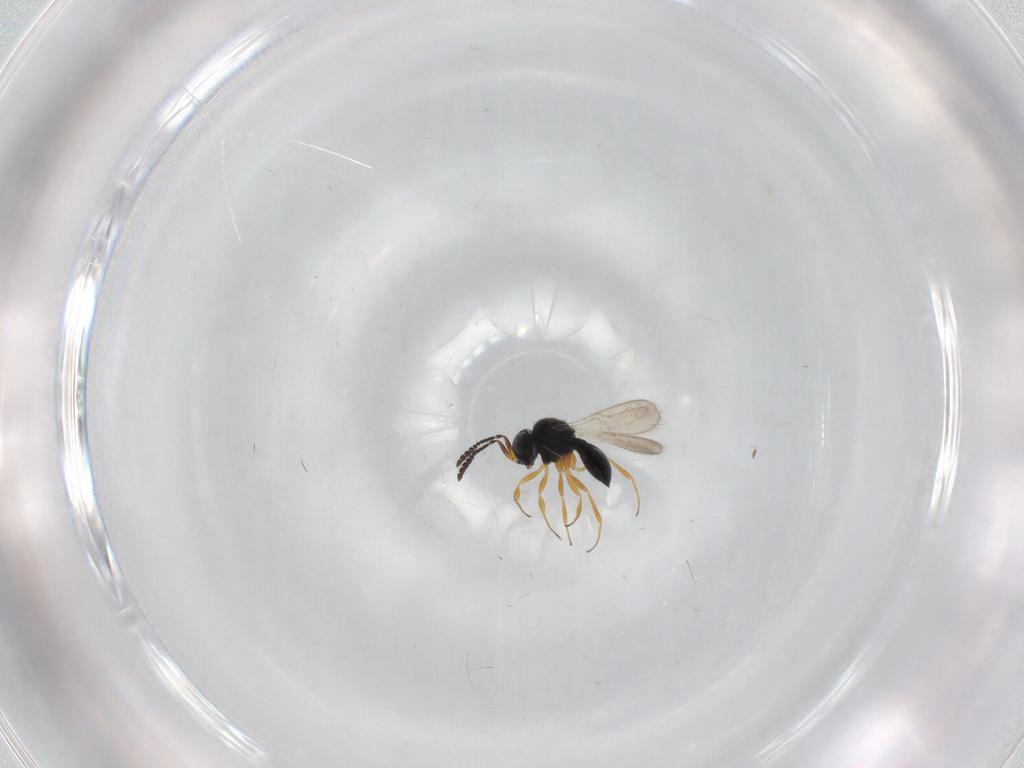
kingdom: Animalia
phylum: Arthropoda
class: Insecta
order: Hymenoptera
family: Scelionidae
